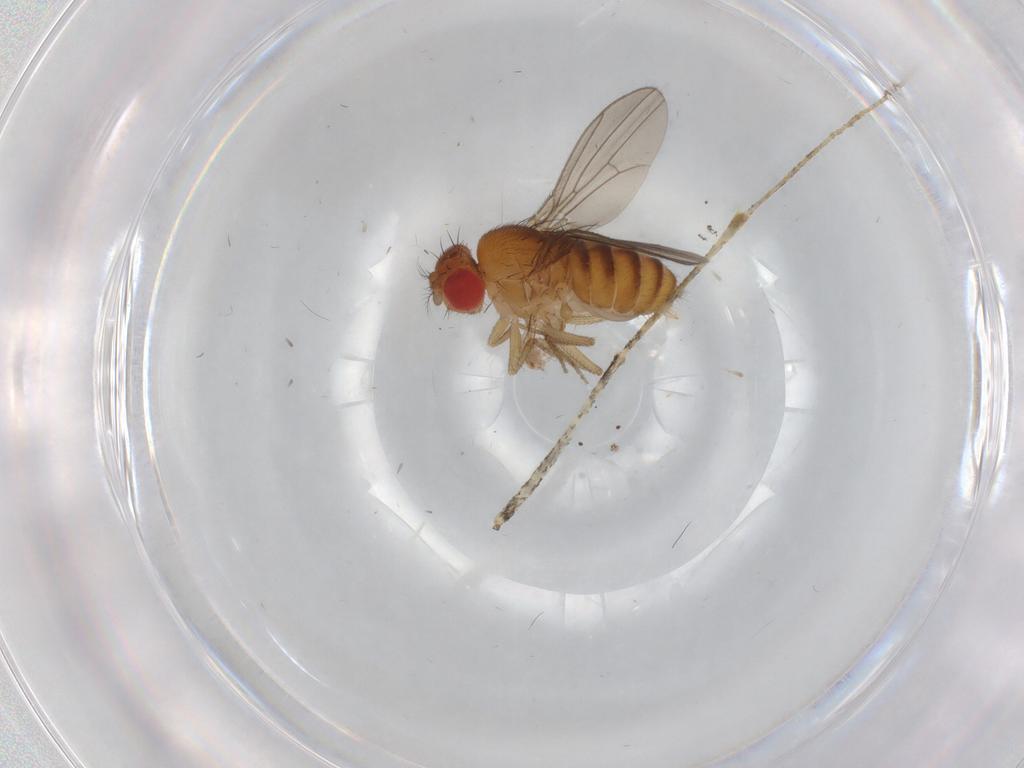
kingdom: Animalia
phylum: Arthropoda
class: Insecta
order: Diptera
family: Drosophilidae
